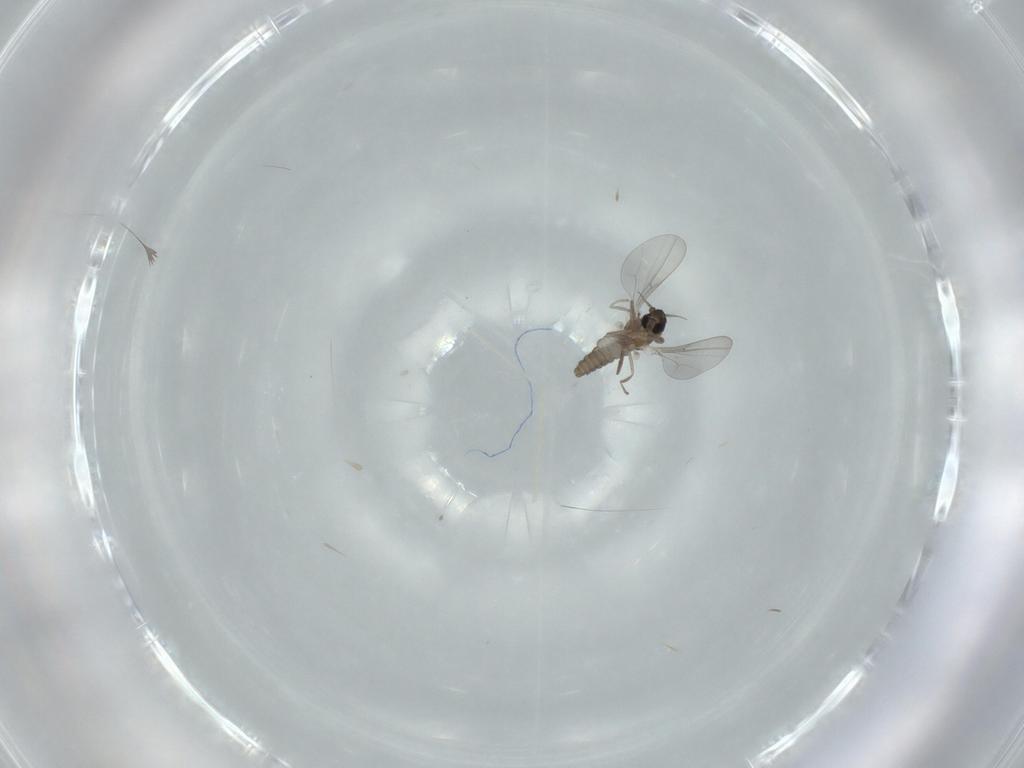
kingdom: Animalia
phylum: Arthropoda
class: Insecta
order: Diptera
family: Cecidomyiidae
